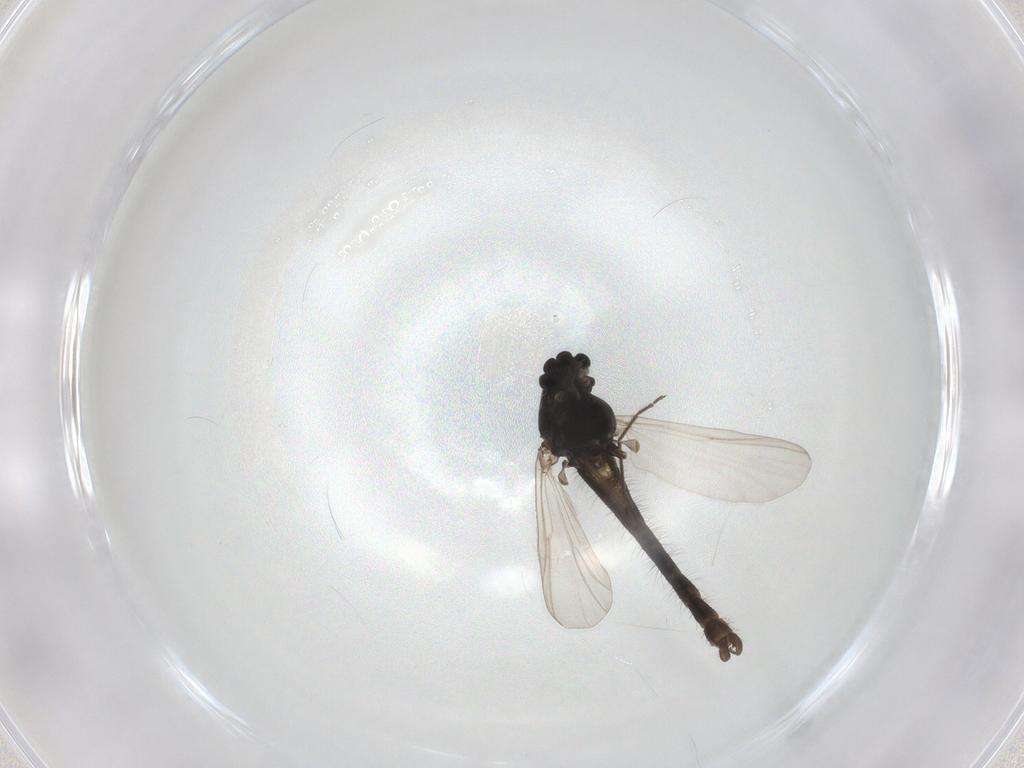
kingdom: Animalia
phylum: Arthropoda
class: Insecta
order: Diptera
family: Chironomidae
